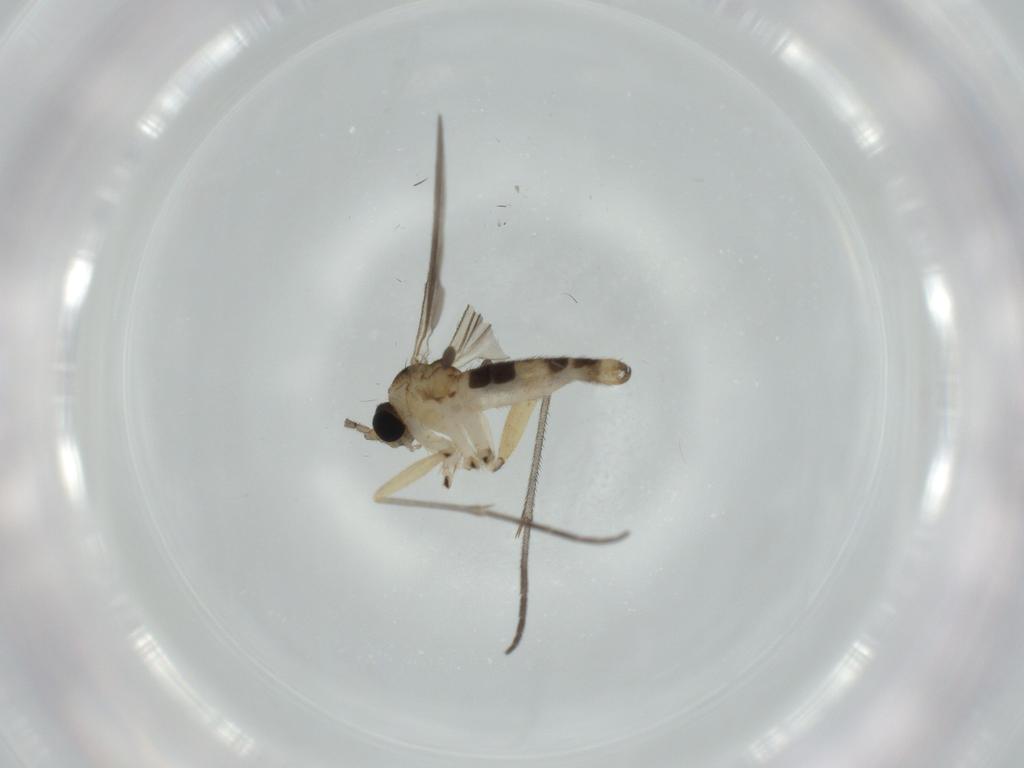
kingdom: Animalia
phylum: Arthropoda
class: Insecta
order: Diptera
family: Sciaridae
